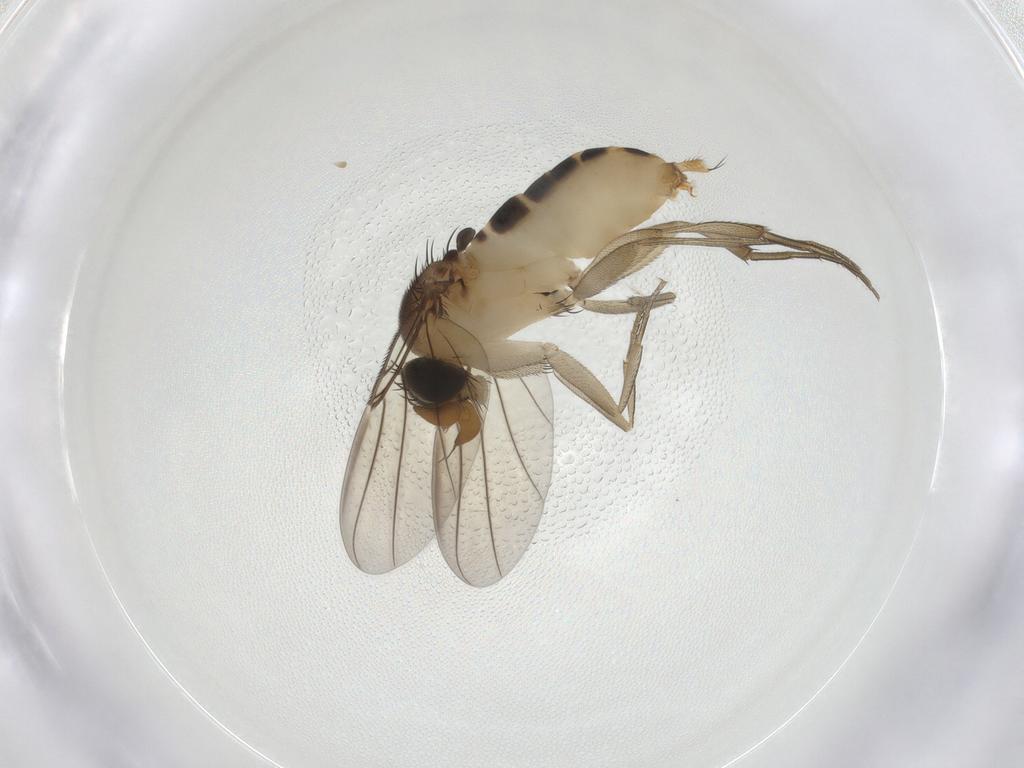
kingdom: Animalia
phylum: Arthropoda
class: Insecta
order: Diptera
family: Phoridae
